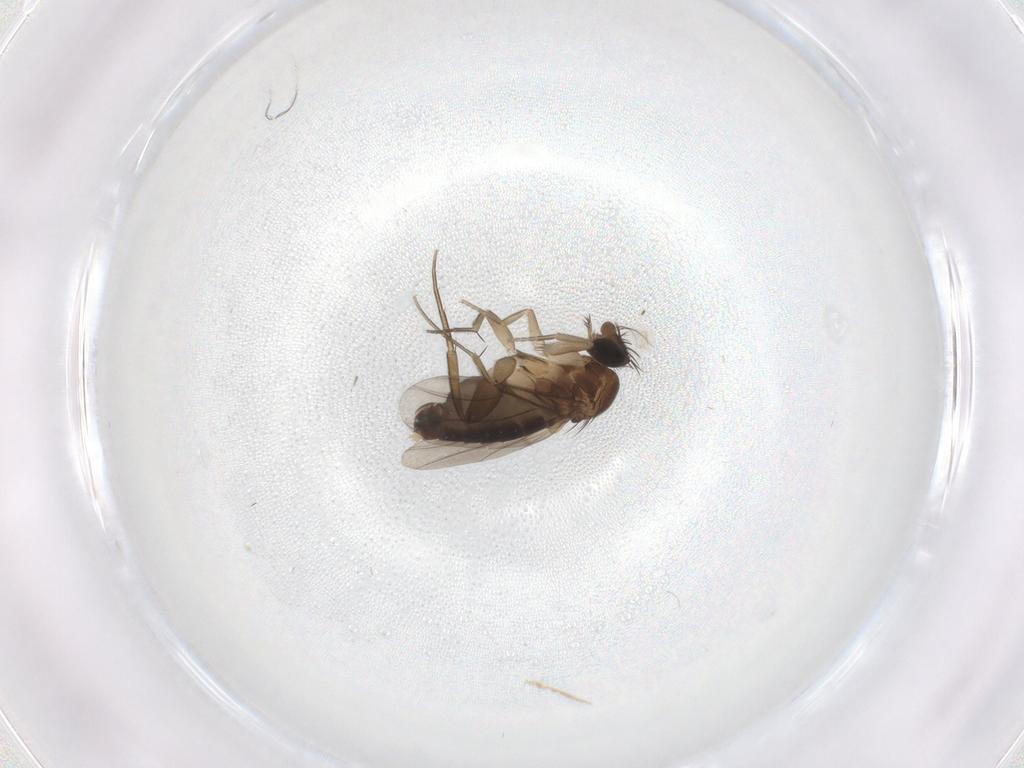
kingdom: Animalia
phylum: Arthropoda
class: Insecta
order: Diptera
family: Phoridae
